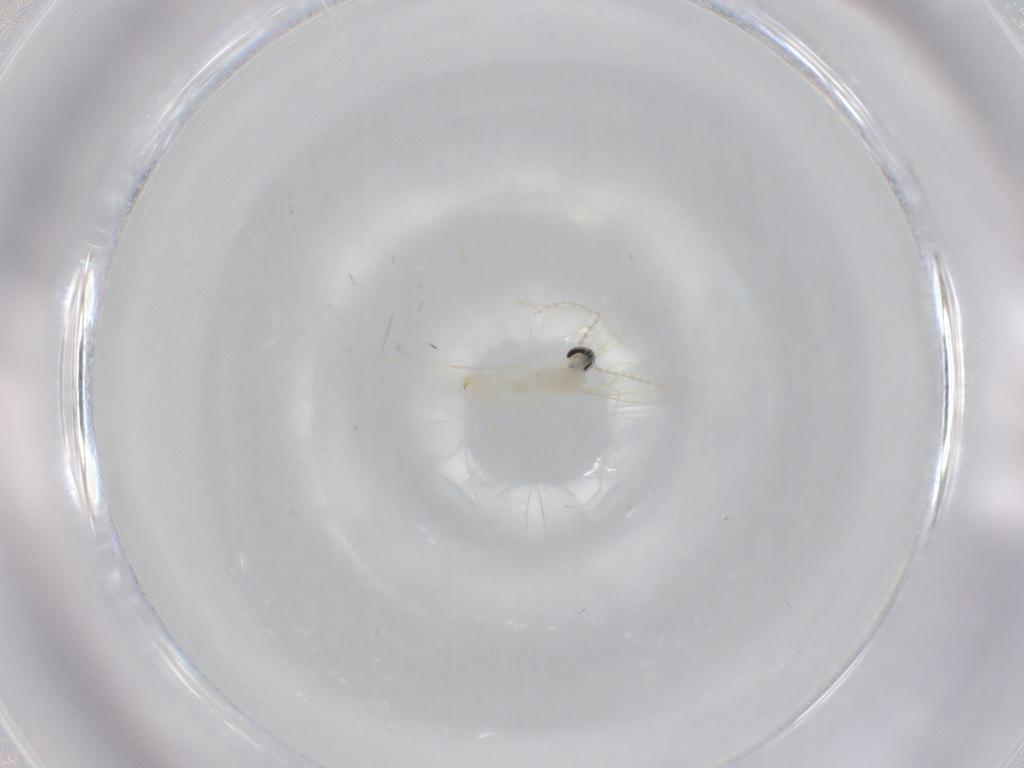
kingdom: Animalia
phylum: Arthropoda
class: Insecta
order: Diptera
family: Cecidomyiidae
